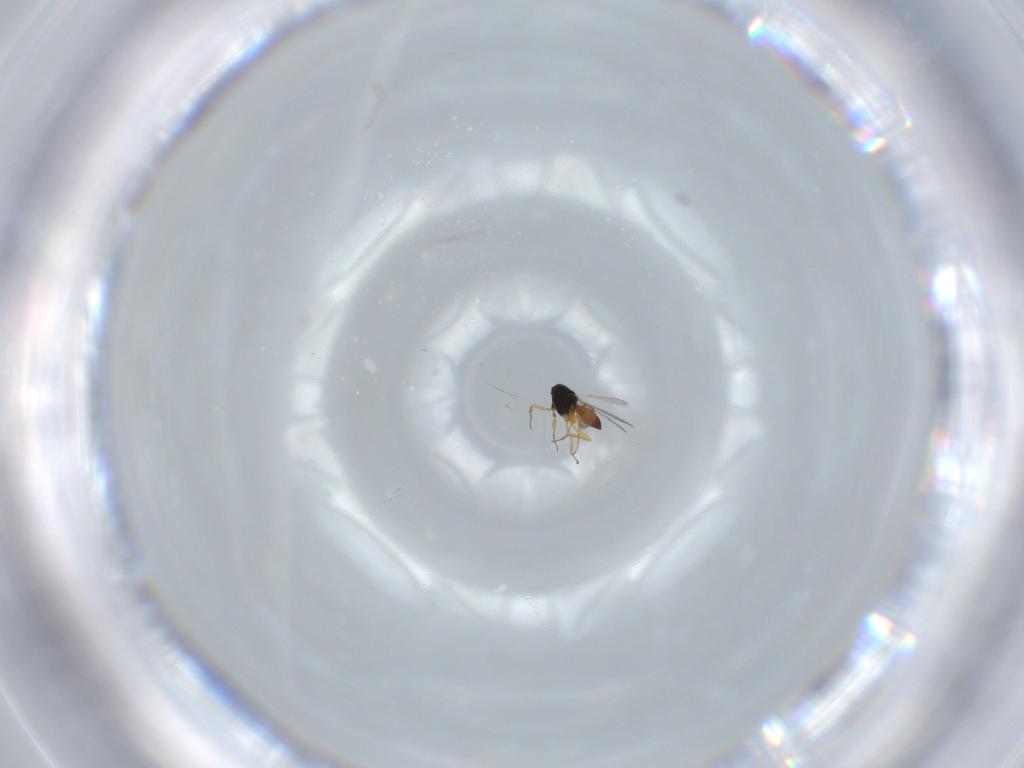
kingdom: Animalia
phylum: Arthropoda
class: Insecta
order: Hymenoptera
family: Scelionidae
